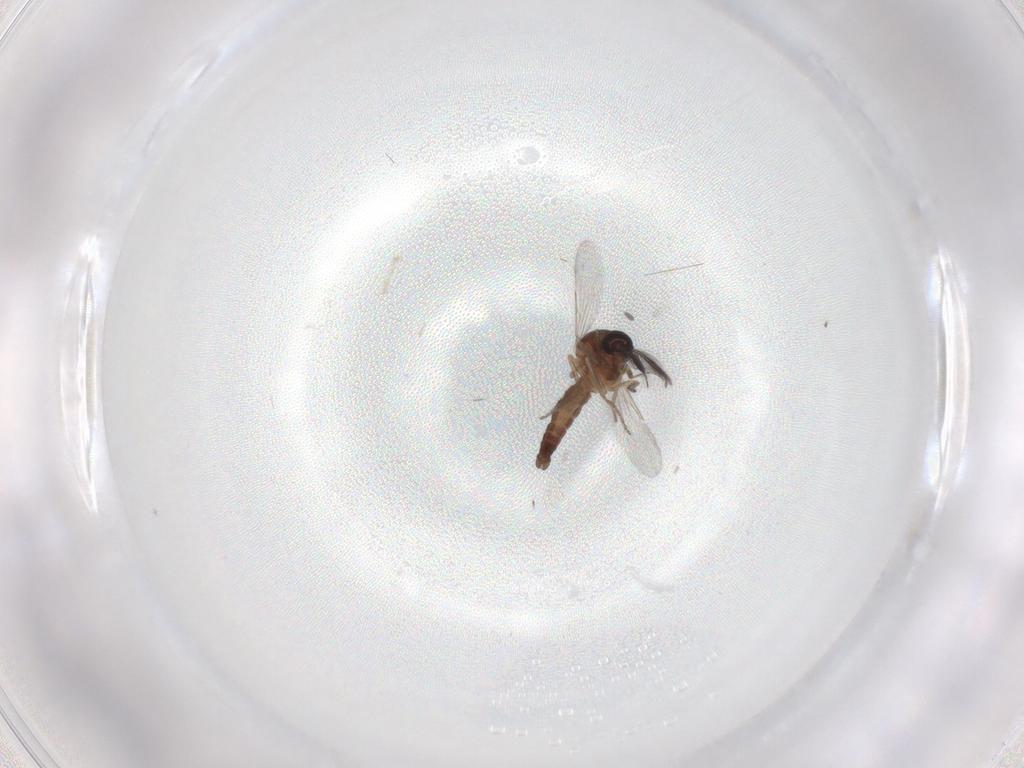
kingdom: Animalia
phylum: Arthropoda
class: Insecta
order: Diptera
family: Ceratopogonidae
